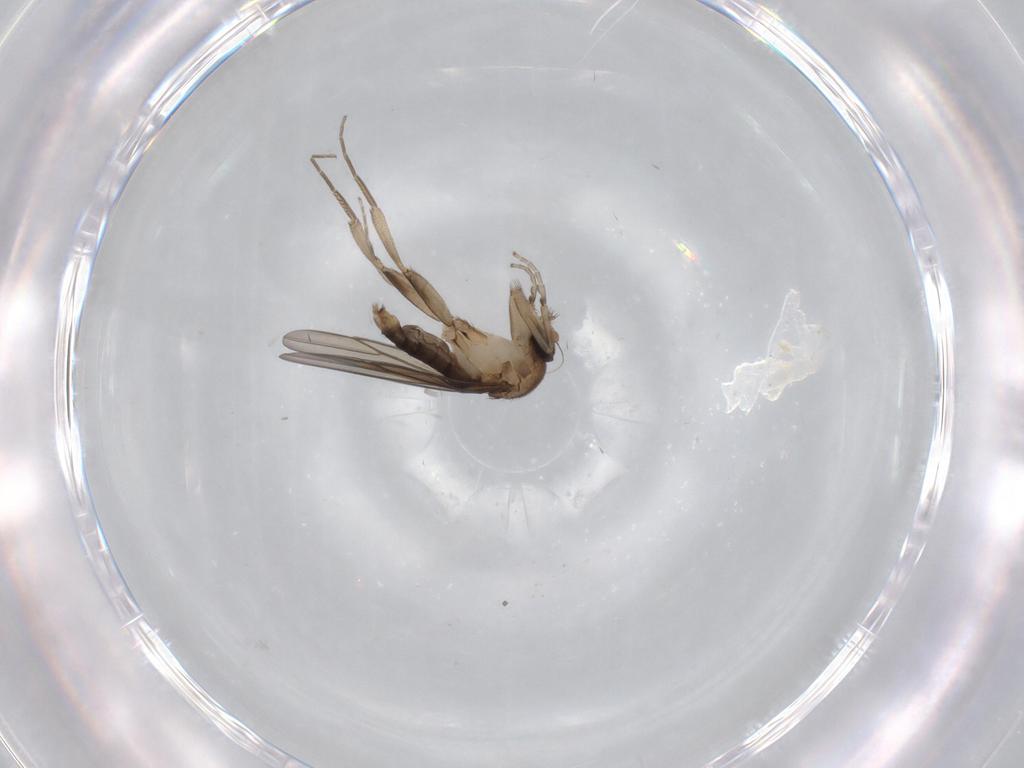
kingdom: Animalia
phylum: Arthropoda
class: Insecta
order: Diptera
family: Phoridae
